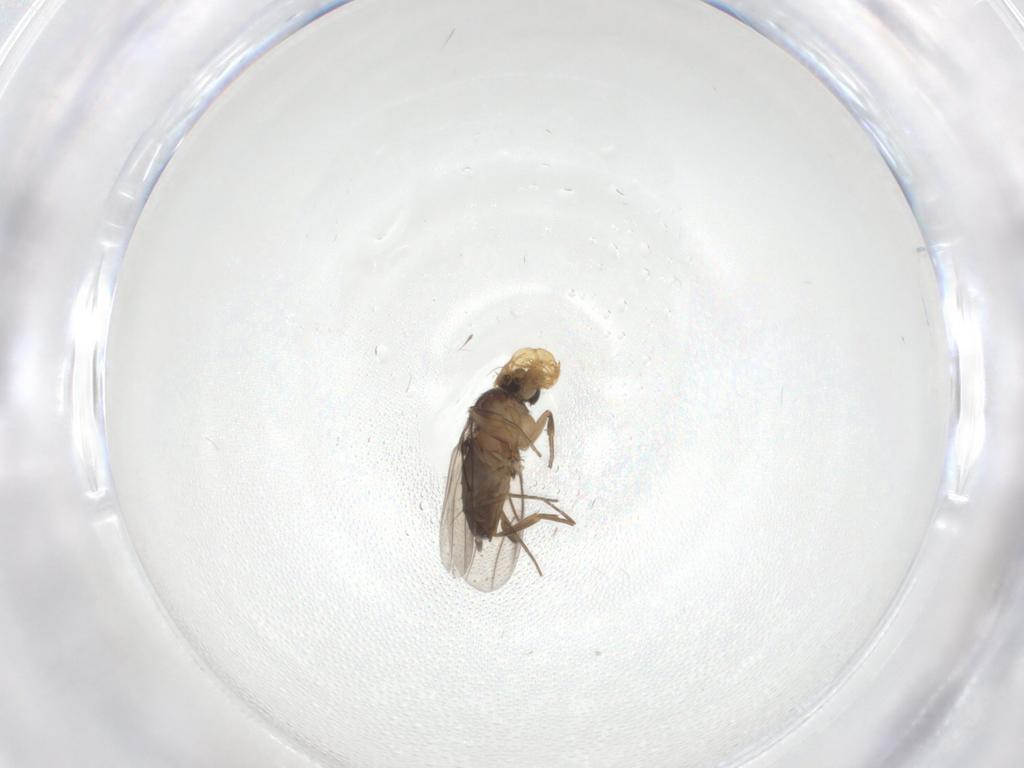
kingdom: Animalia
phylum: Arthropoda
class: Insecta
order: Diptera
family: Phoridae
